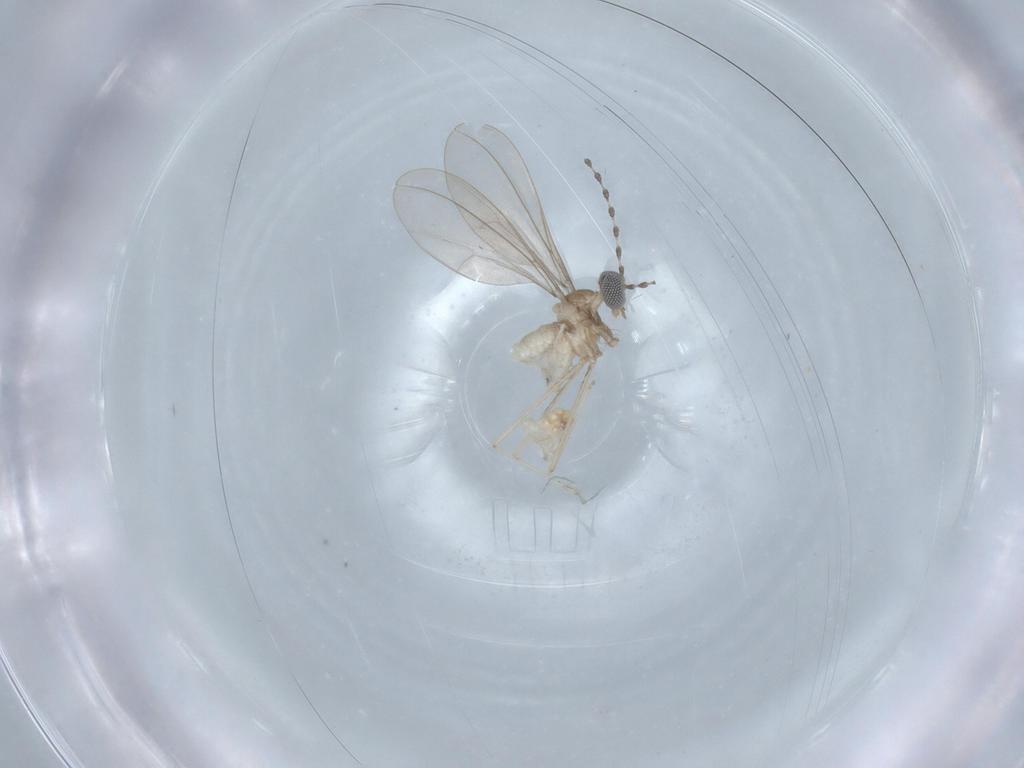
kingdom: Animalia
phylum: Arthropoda
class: Insecta
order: Diptera
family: Cecidomyiidae
